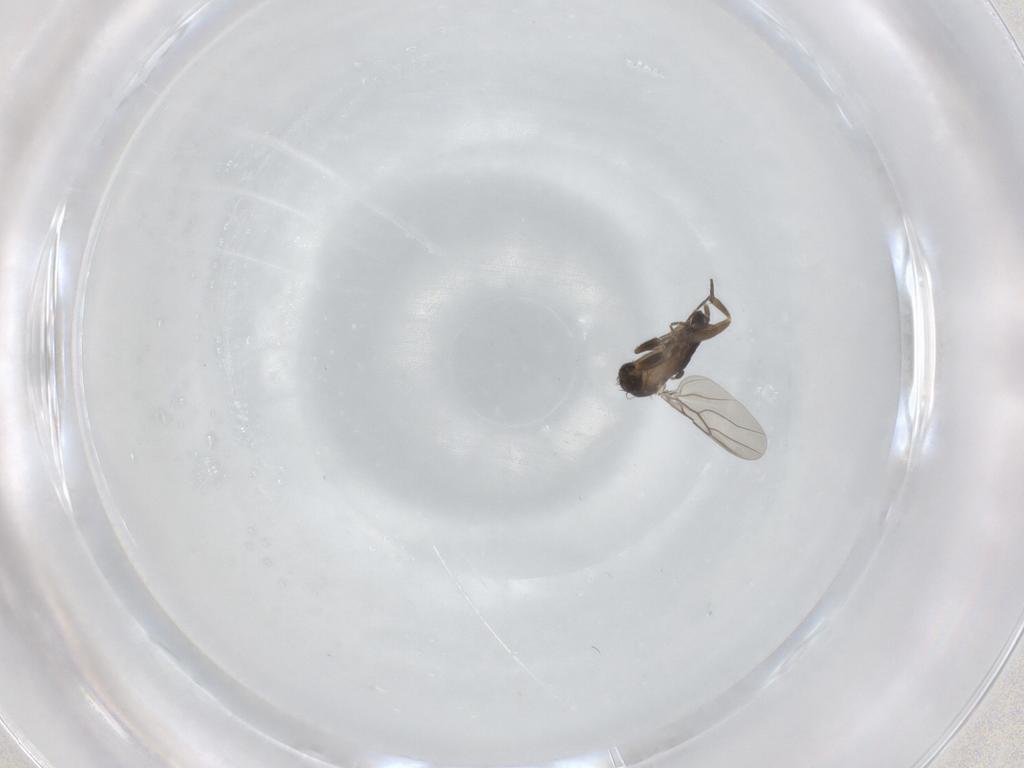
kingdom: Animalia
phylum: Arthropoda
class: Insecta
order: Diptera
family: Phoridae
